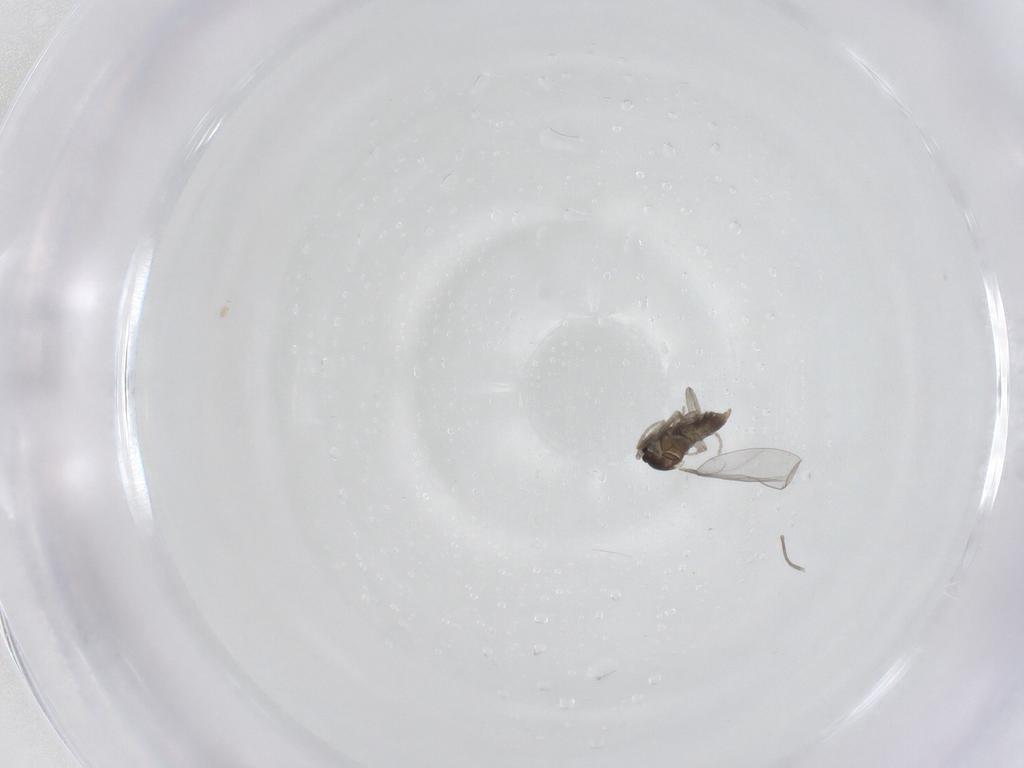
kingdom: Animalia
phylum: Arthropoda
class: Insecta
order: Diptera
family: Cecidomyiidae
